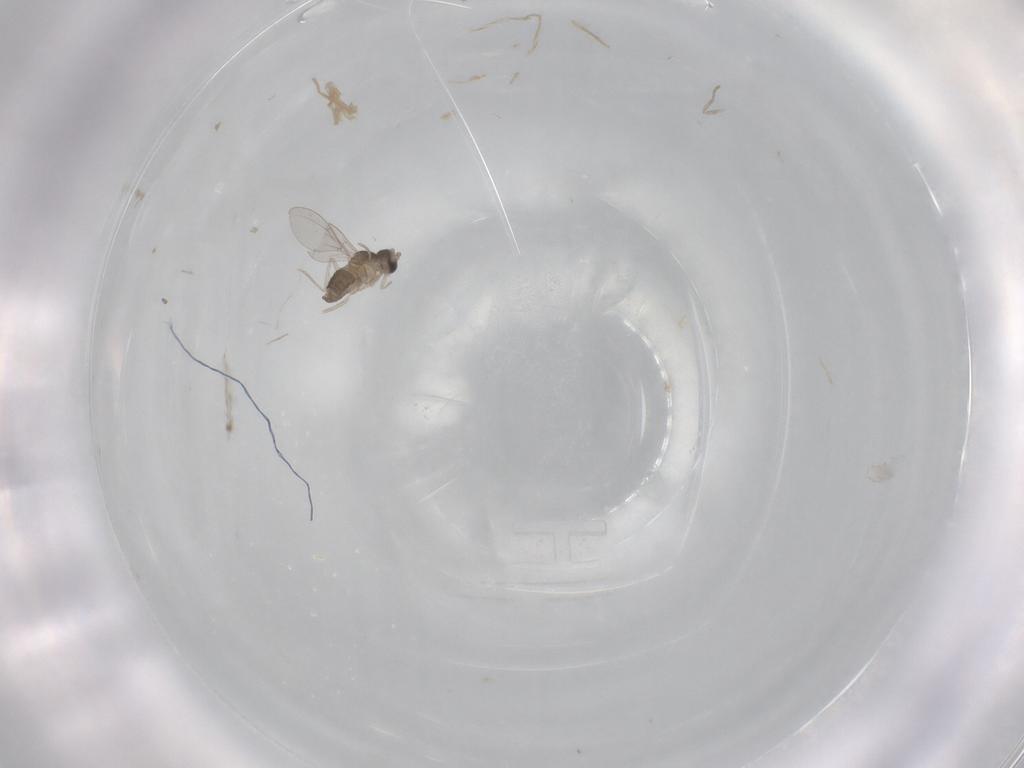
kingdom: Animalia
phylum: Arthropoda
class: Insecta
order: Diptera
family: Cecidomyiidae
